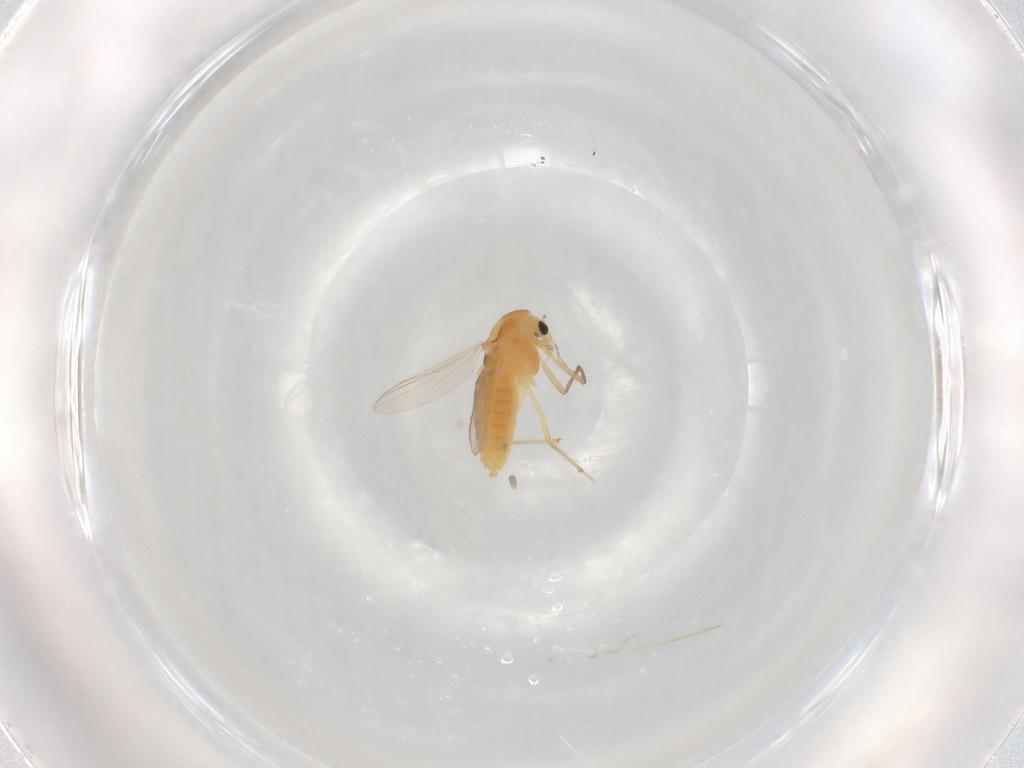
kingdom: Animalia
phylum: Arthropoda
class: Insecta
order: Diptera
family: Chironomidae
